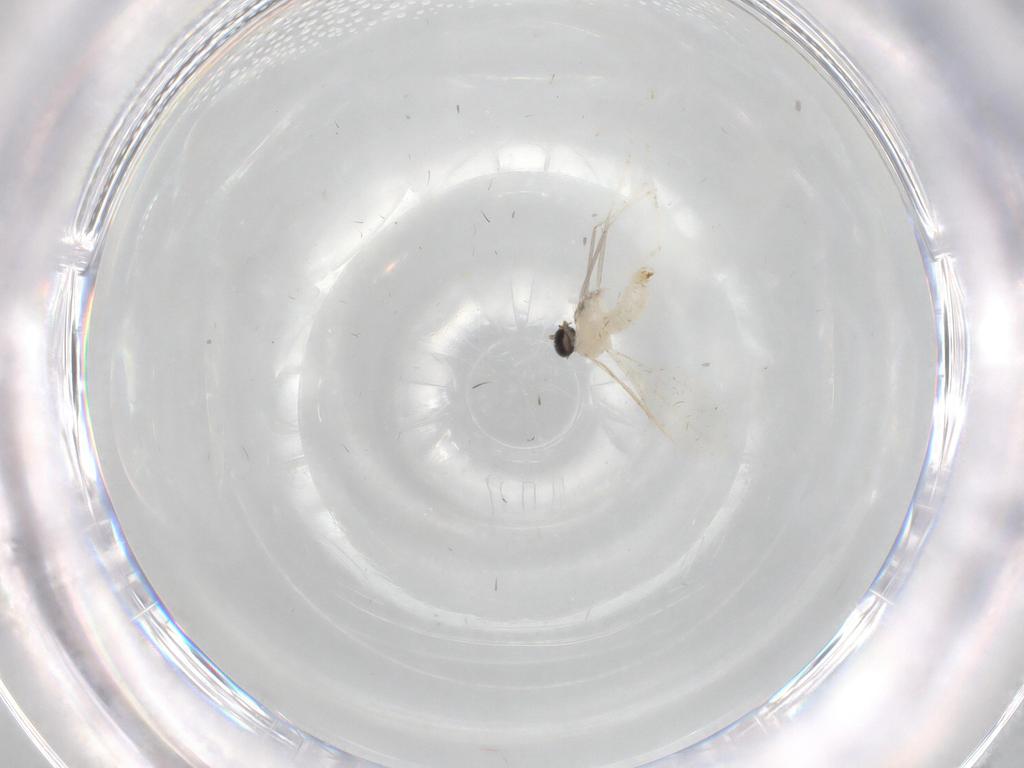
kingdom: Animalia
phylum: Arthropoda
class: Insecta
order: Diptera
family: Cecidomyiidae
